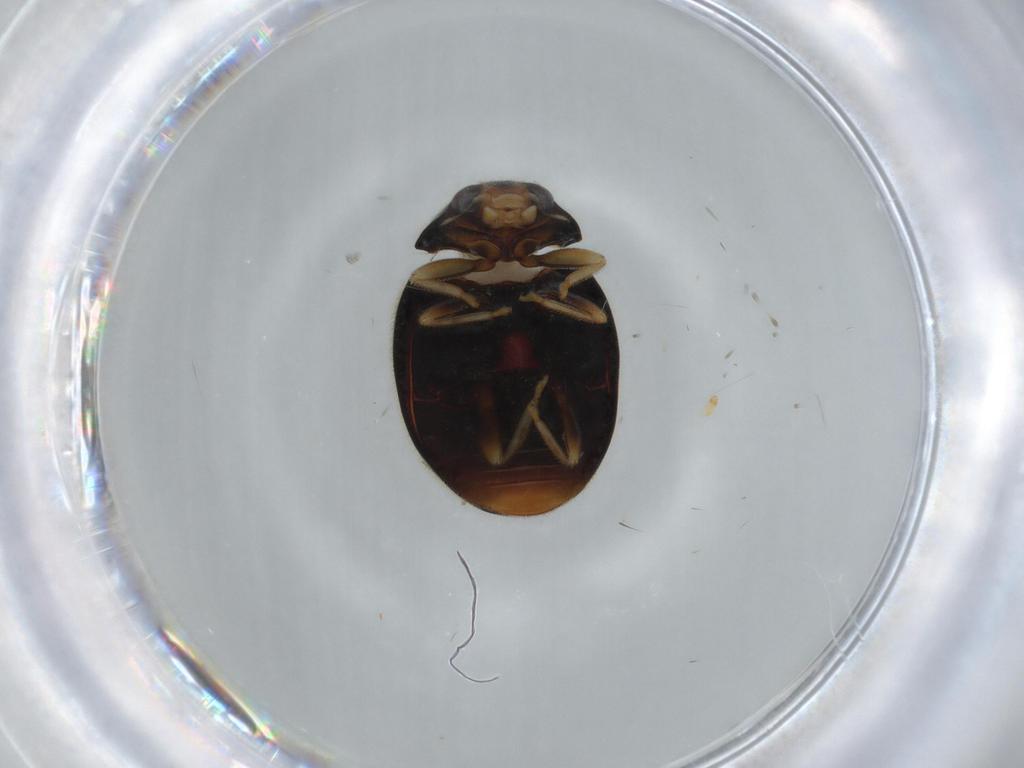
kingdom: Animalia
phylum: Arthropoda
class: Insecta
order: Coleoptera
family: Coccinellidae
